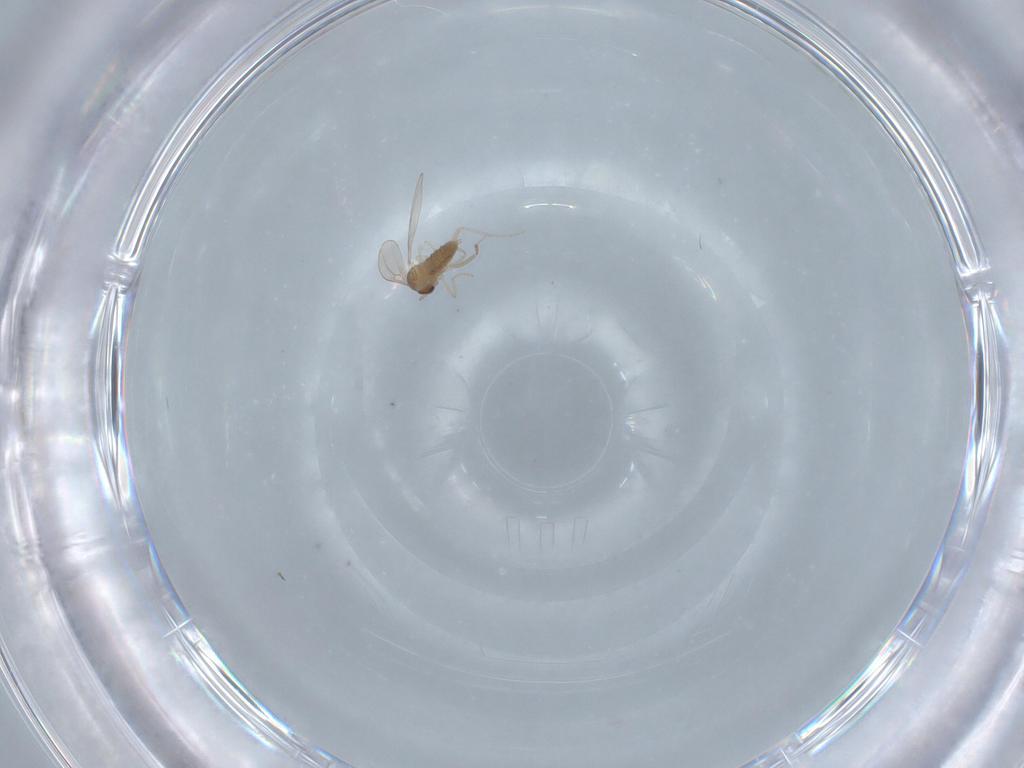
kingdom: Animalia
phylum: Arthropoda
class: Insecta
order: Diptera
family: Cecidomyiidae
